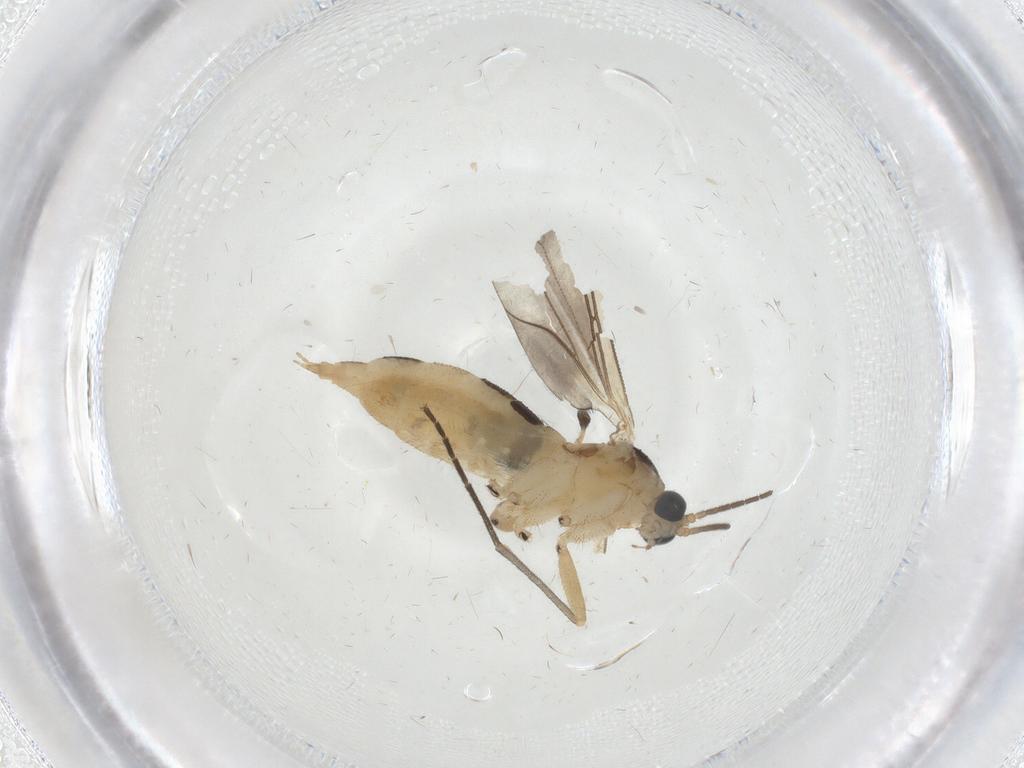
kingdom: Animalia
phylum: Arthropoda
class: Insecta
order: Diptera
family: Sciaridae
